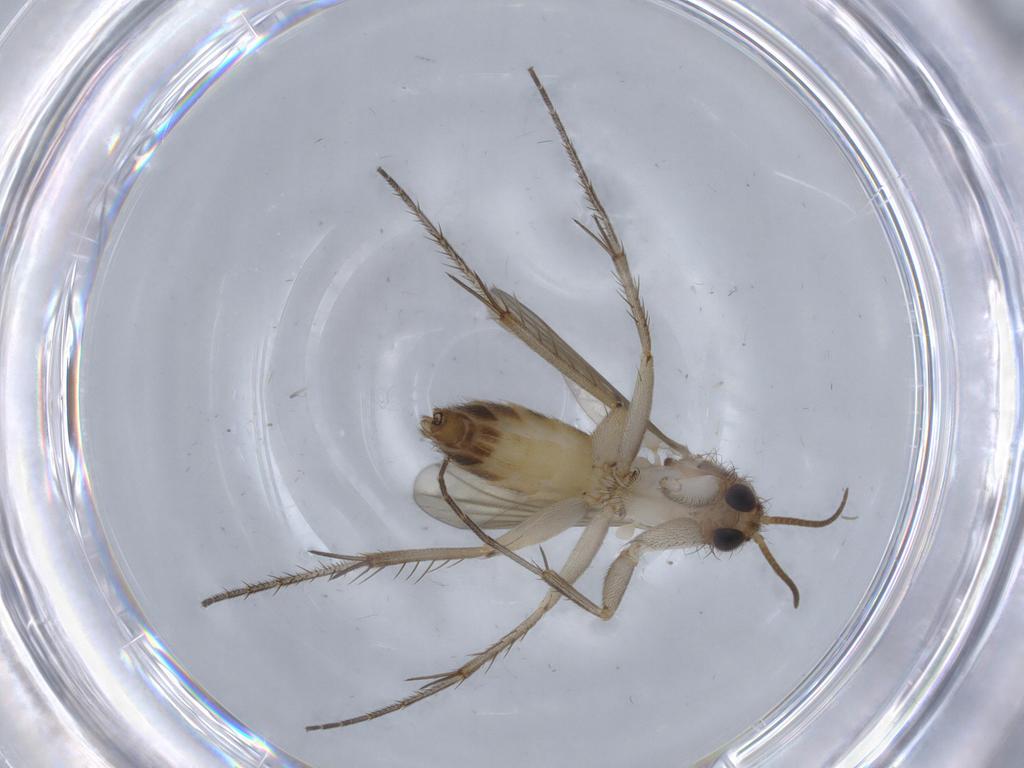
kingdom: Animalia
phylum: Arthropoda
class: Insecta
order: Diptera
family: Chironomidae
